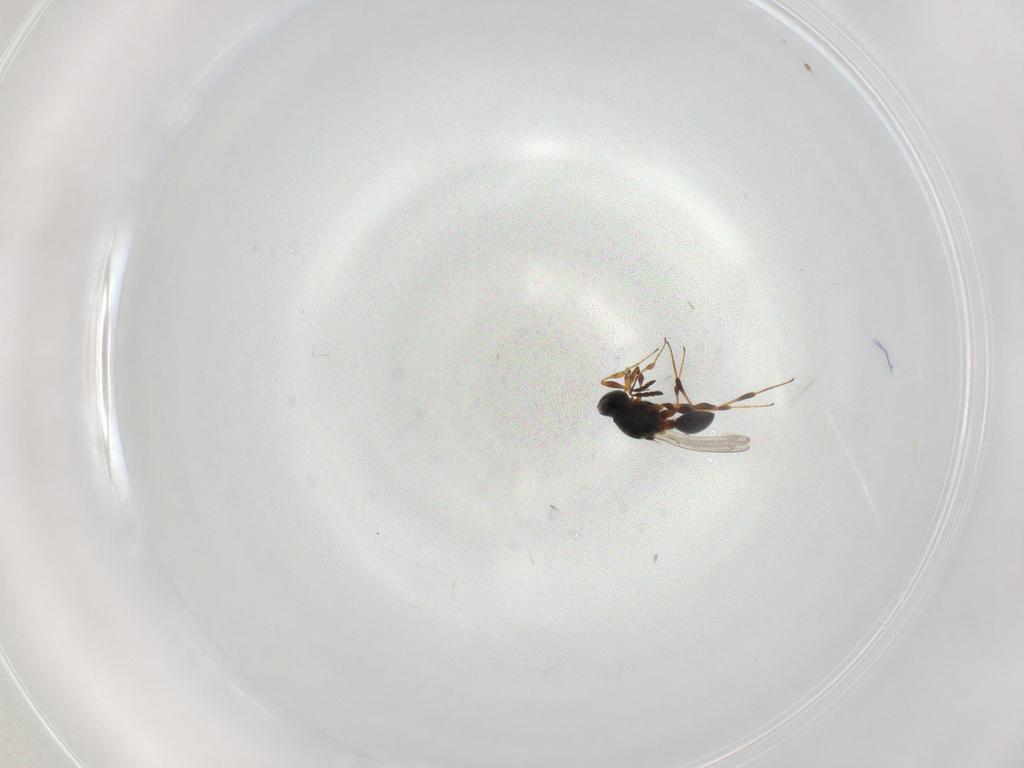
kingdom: Animalia
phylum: Arthropoda
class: Insecta
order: Hymenoptera
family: Platygastridae
